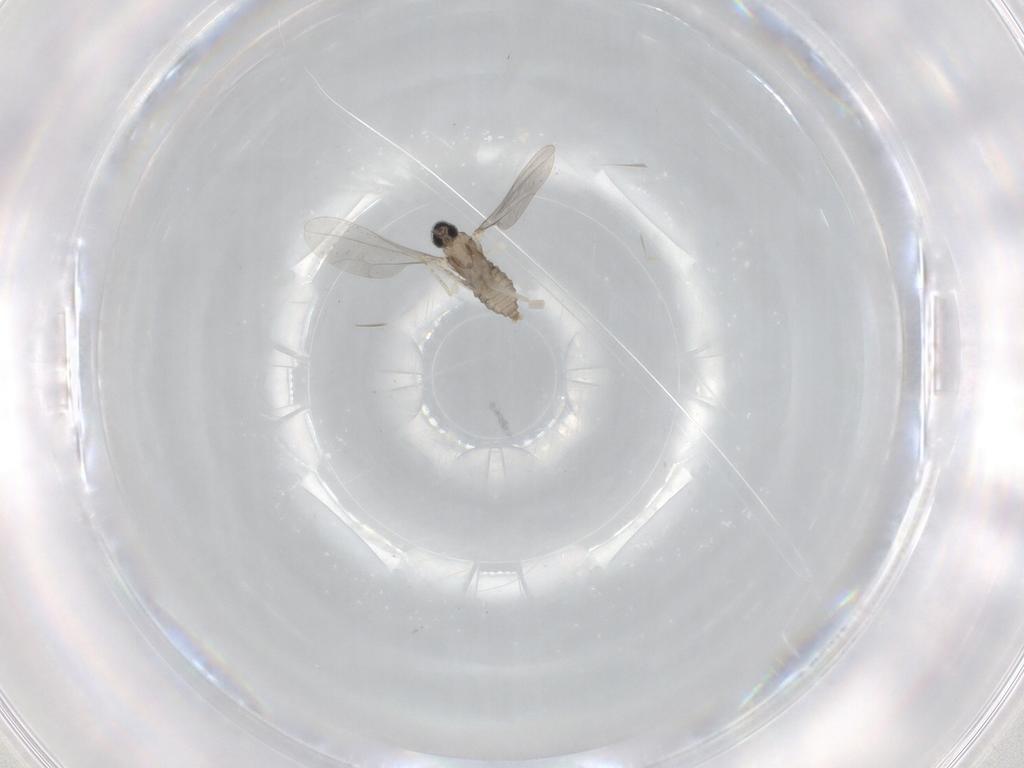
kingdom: Animalia
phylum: Arthropoda
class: Insecta
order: Diptera
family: Cecidomyiidae
